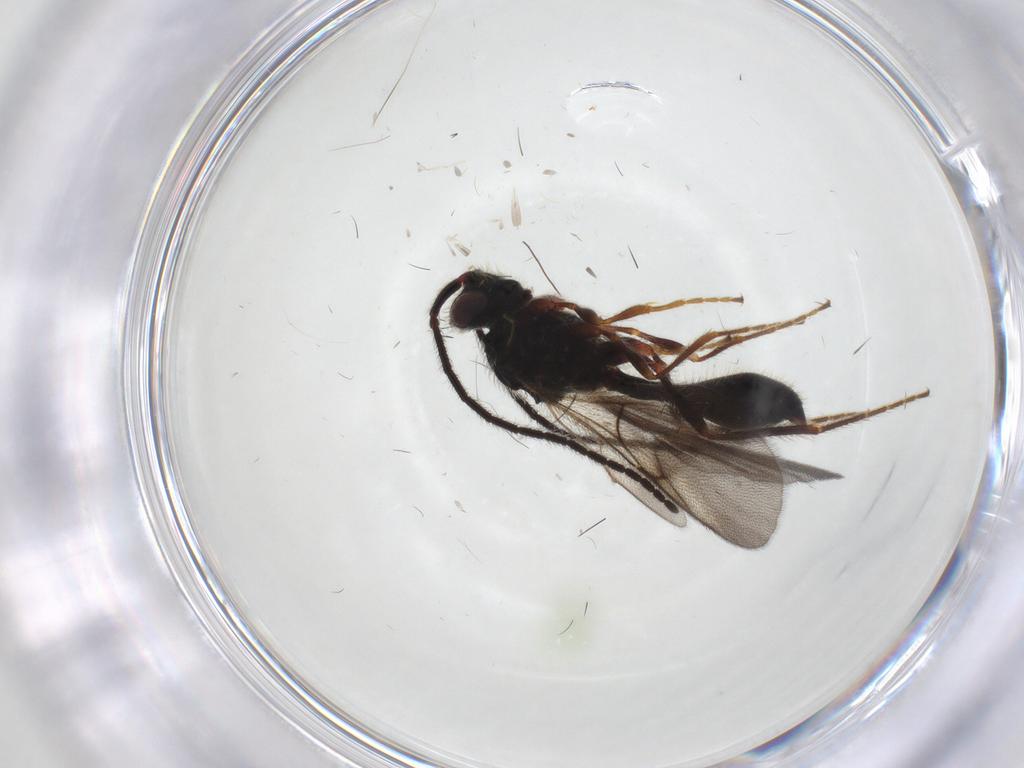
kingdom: Animalia
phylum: Arthropoda
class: Insecta
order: Hymenoptera
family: Diapriidae
